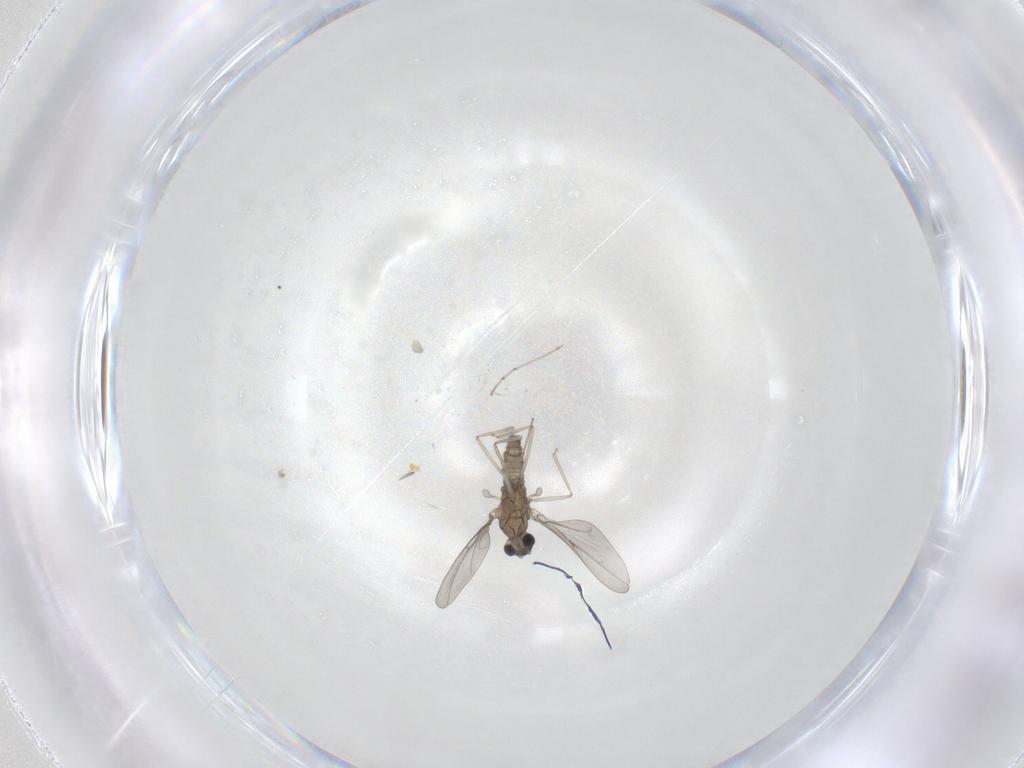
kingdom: Animalia
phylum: Arthropoda
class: Insecta
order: Diptera
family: Cecidomyiidae
